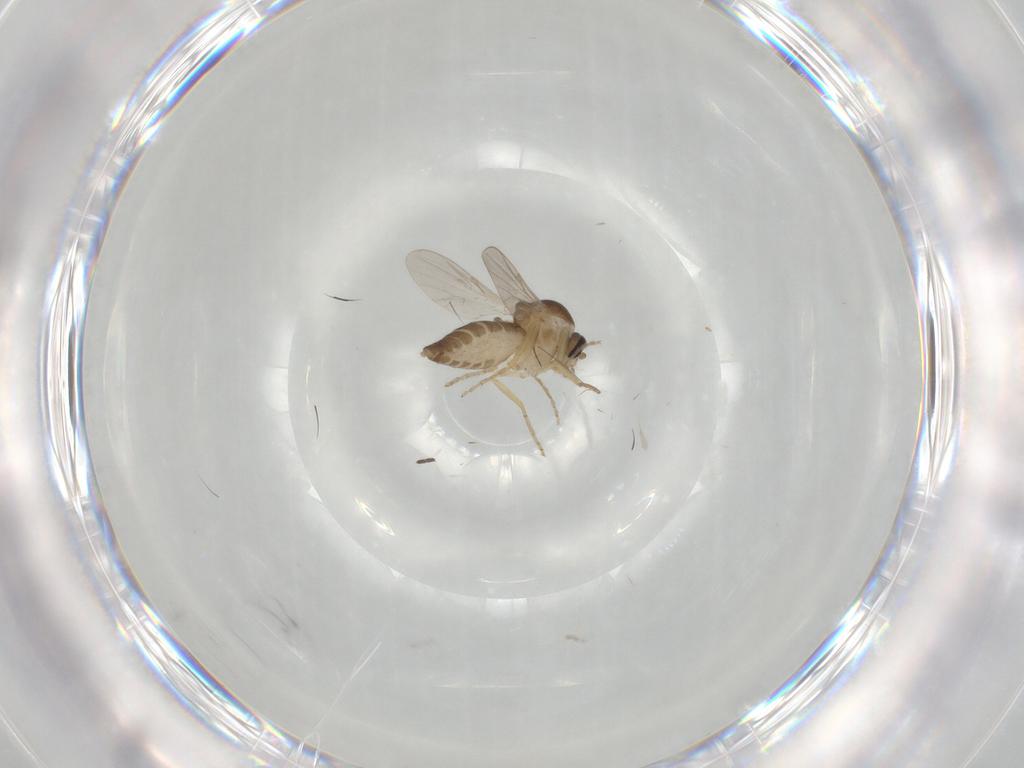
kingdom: Animalia
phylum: Arthropoda
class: Insecta
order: Diptera
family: Ceratopogonidae
